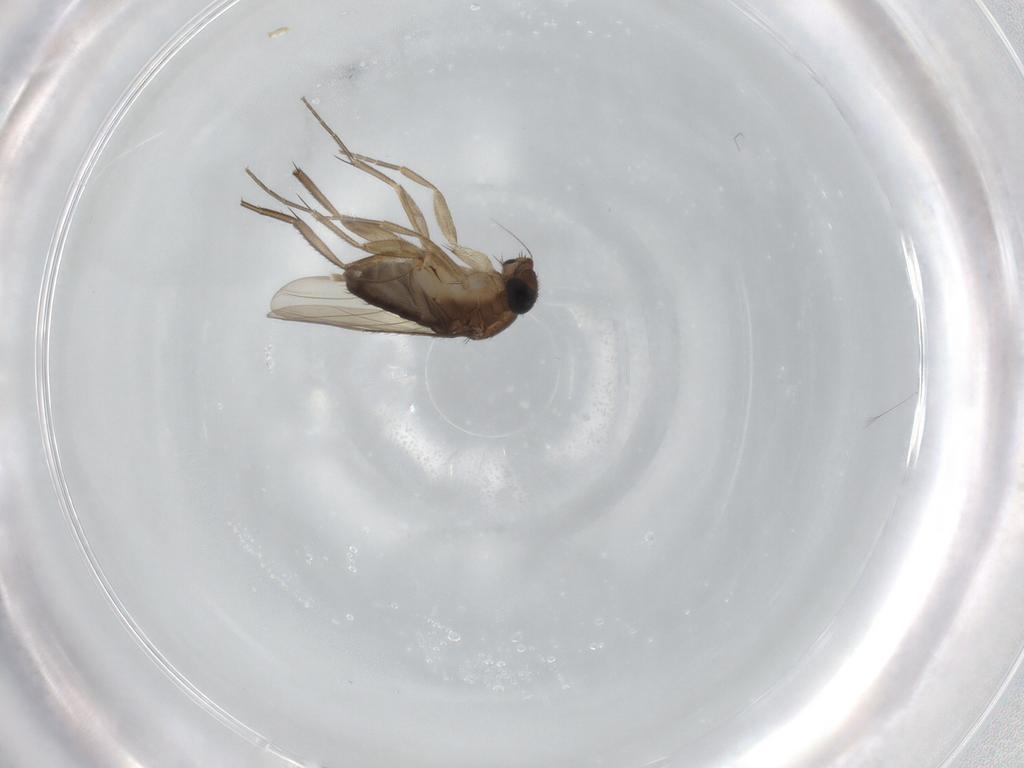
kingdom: Animalia
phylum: Arthropoda
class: Insecta
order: Diptera
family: Phoridae
